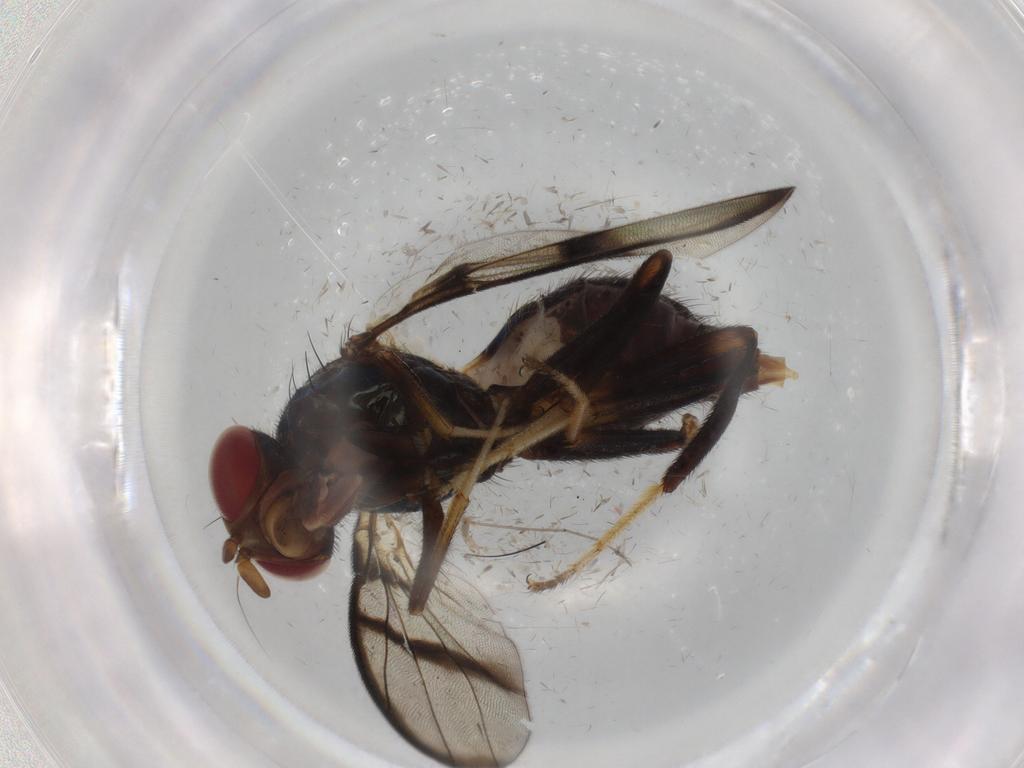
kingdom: Animalia
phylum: Arthropoda
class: Insecta
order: Diptera
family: Richardiidae
